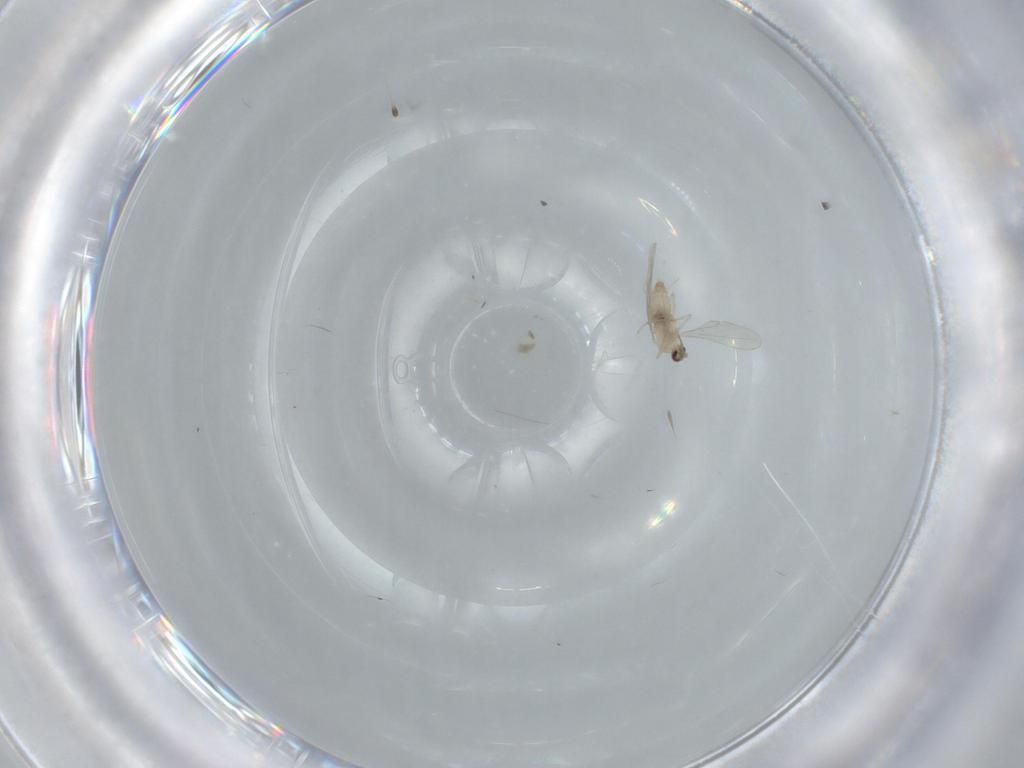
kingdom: Animalia
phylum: Arthropoda
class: Insecta
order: Diptera
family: Cecidomyiidae
